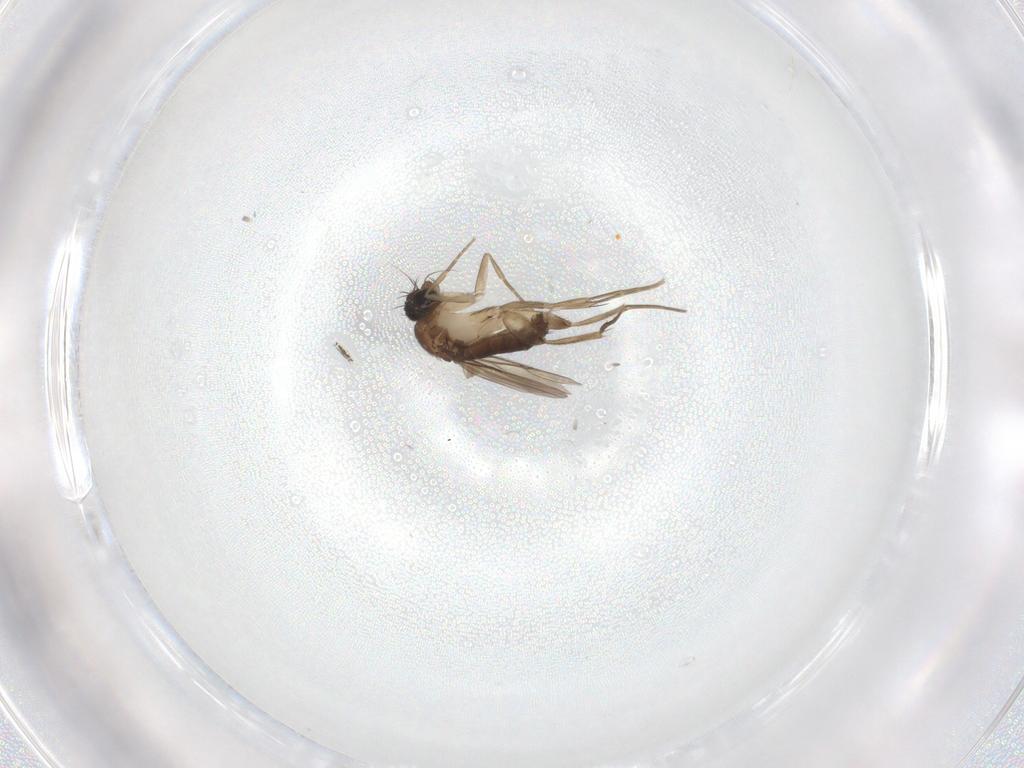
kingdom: Animalia
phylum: Arthropoda
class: Insecta
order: Diptera
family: Phoridae
